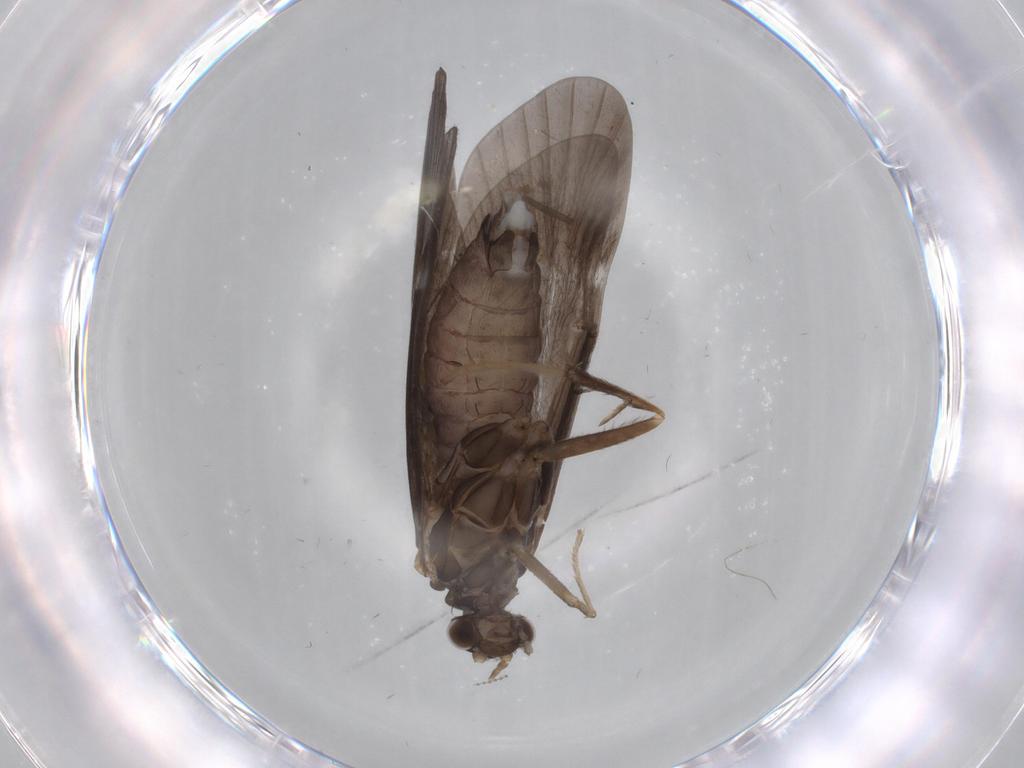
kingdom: Animalia
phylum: Arthropoda
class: Insecta
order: Trichoptera
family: Hydropsychidae
